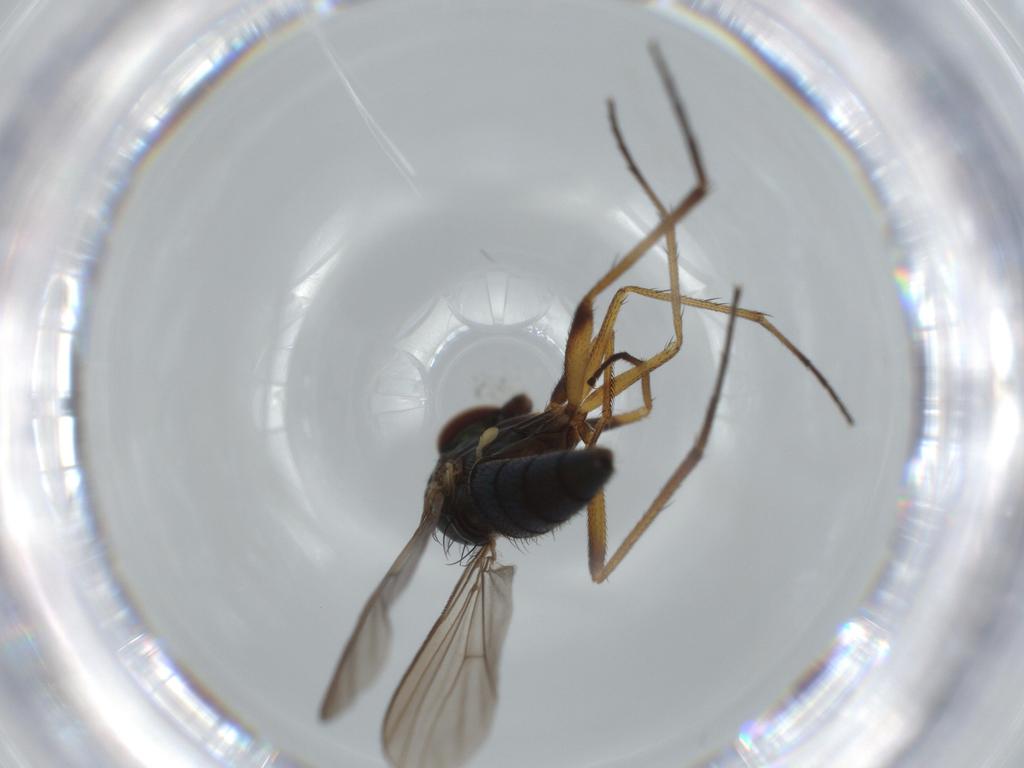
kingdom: Animalia
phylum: Arthropoda
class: Insecta
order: Diptera
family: Dolichopodidae
